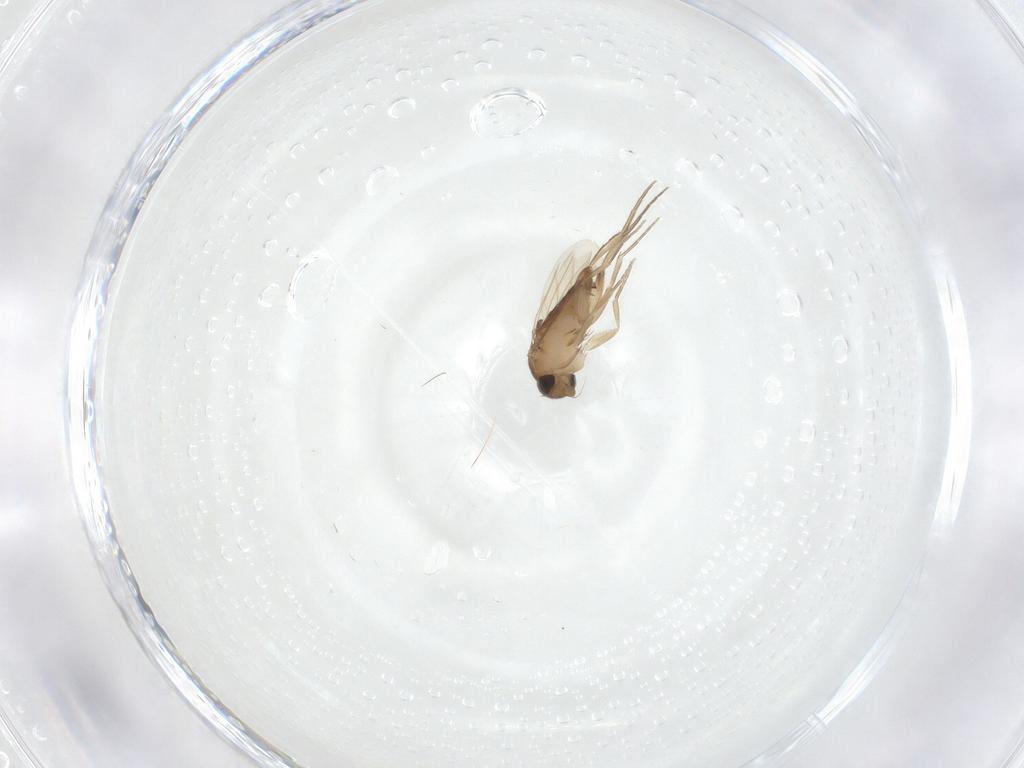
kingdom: Animalia
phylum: Arthropoda
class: Insecta
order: Diptera
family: Phoridae
